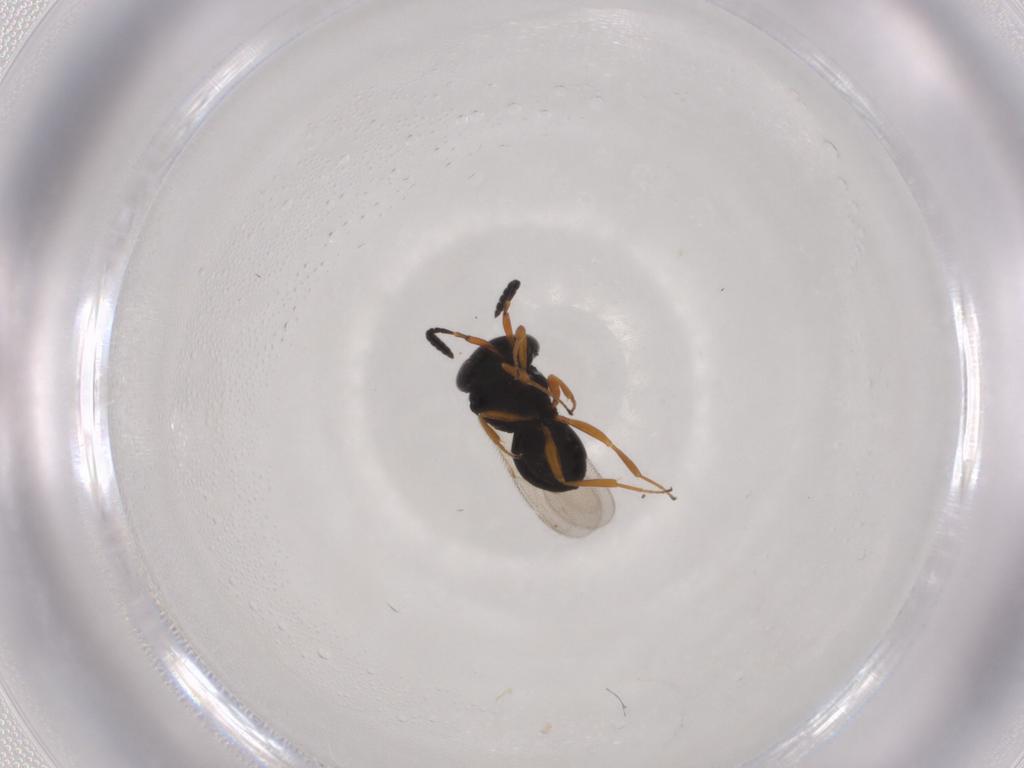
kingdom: Animalia
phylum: Arthropoda
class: Insecta
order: Hymenoptera
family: Scelionidae
